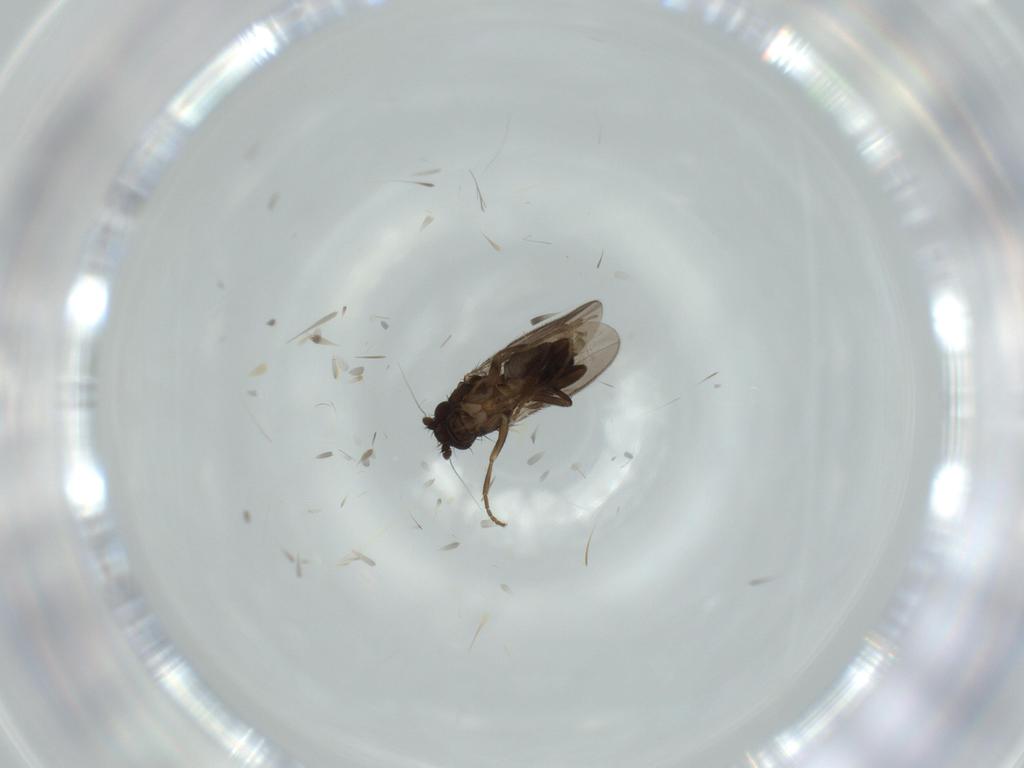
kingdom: Animalia
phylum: Arthropoda
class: Insecta
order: Diptera
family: Sphaeroceridae
